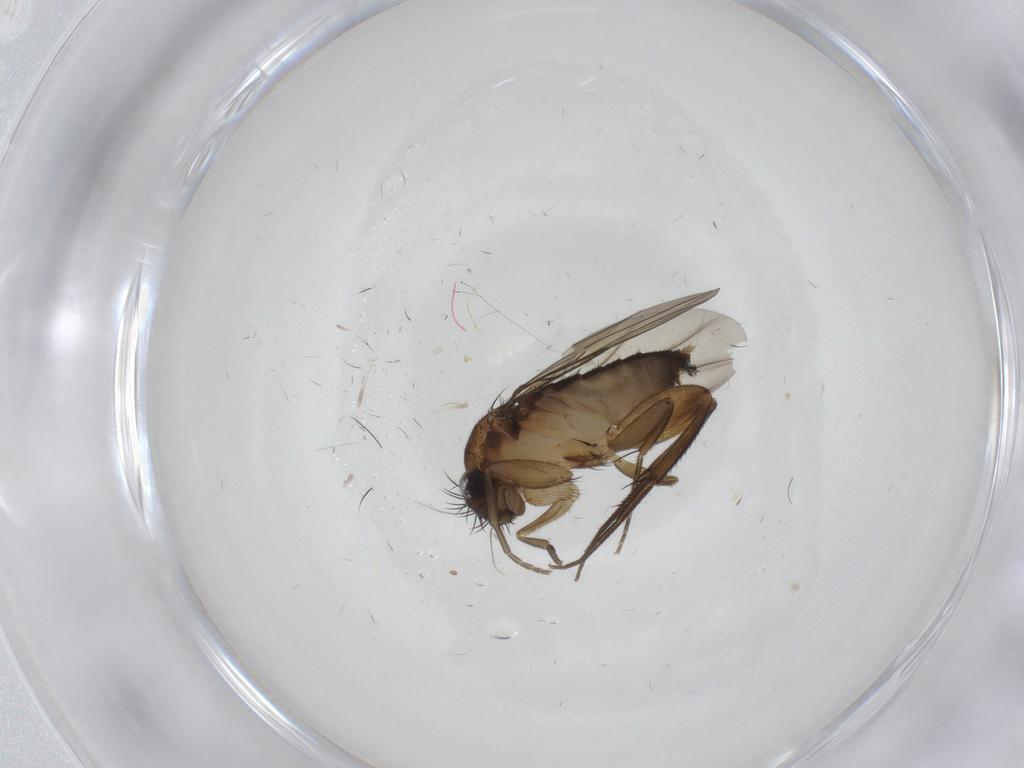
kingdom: Animalia
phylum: Arthropoda
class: Insecta
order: Diptera
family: Phoridae
